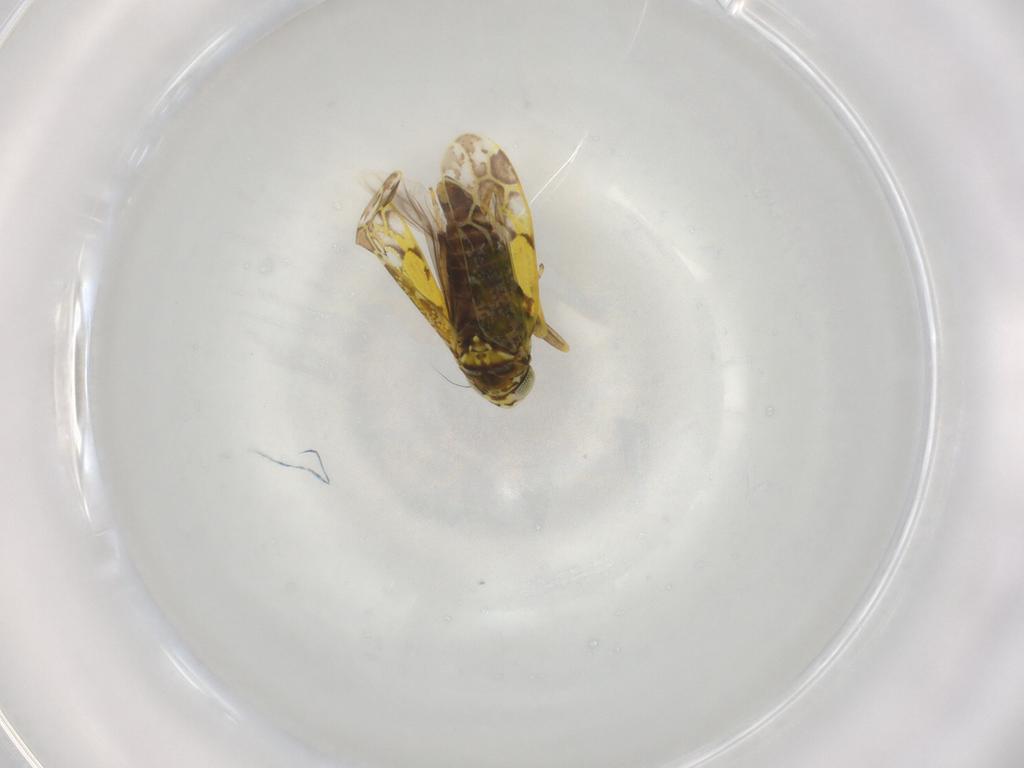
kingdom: Animalia
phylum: Arthropoda
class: Insecta
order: Hemiptera
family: Cicadellidae
